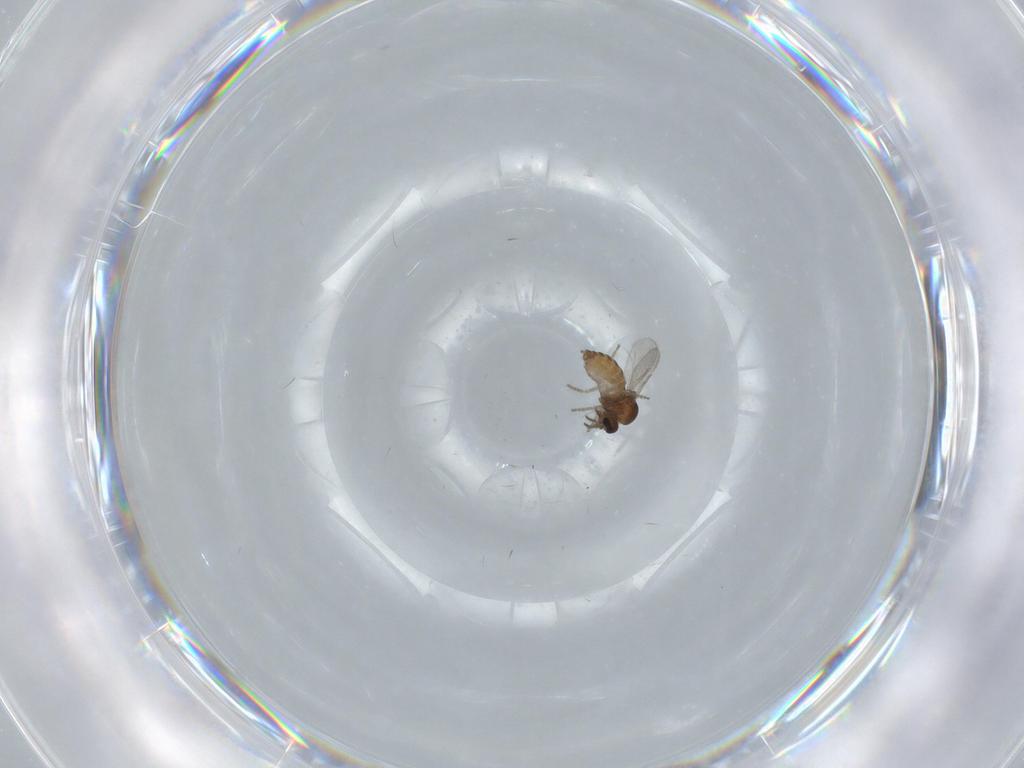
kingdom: Animalia
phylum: Arthropoda
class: Insecta
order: Diptera
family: Ceratopogonidae
